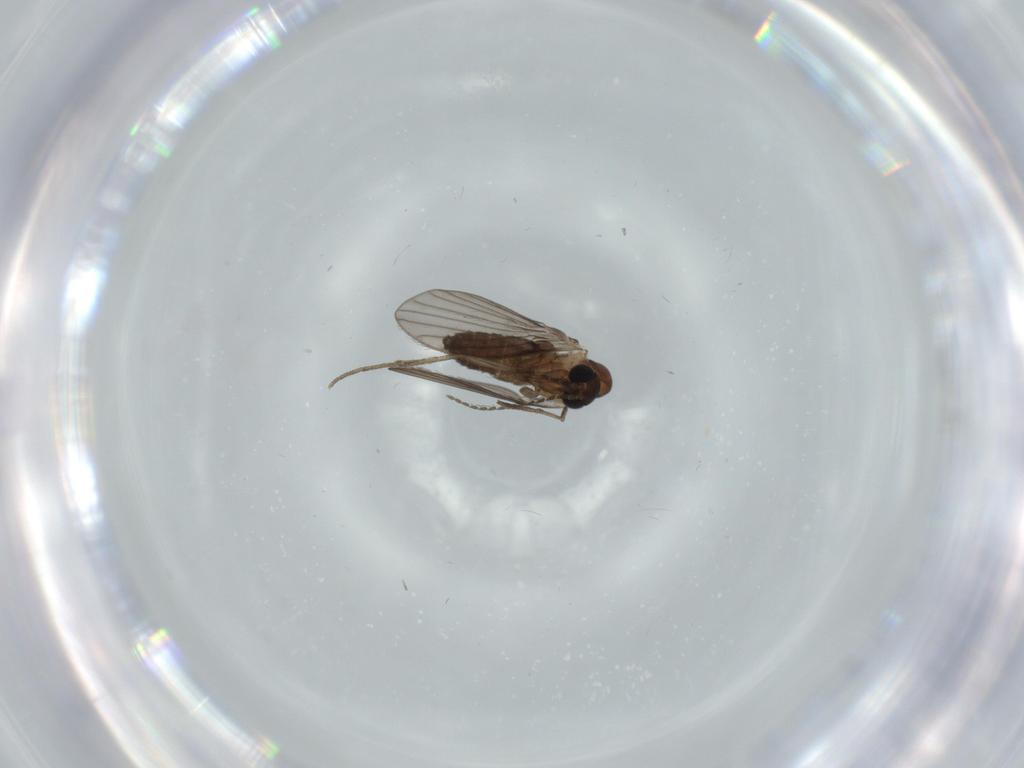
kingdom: Animalia
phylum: Arthropoda
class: Insecta
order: Diptera
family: Psychodidae
